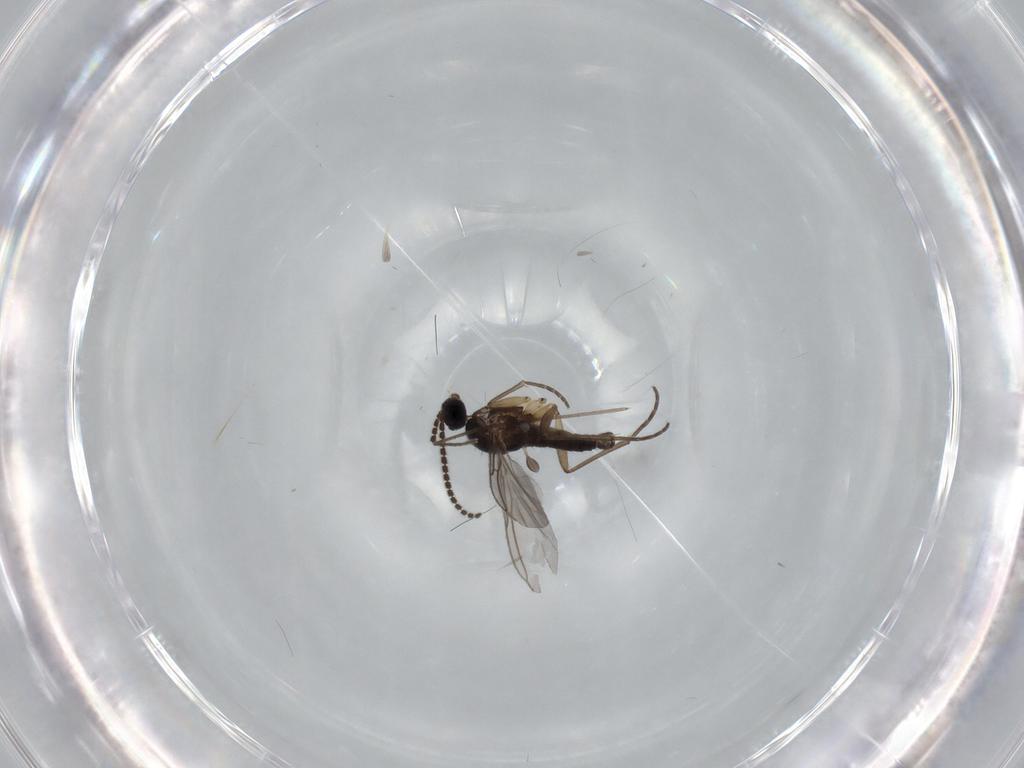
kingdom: Animalia
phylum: Arthropoda
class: Insecta
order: Diptera
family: Sciaridae
